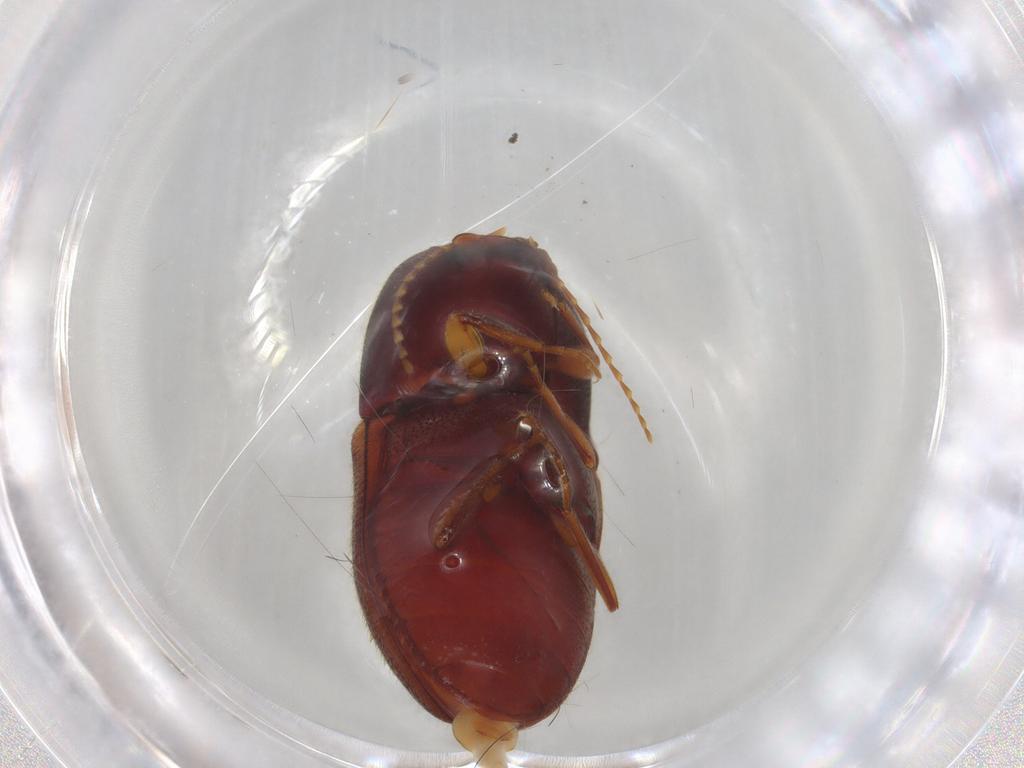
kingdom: Animalia
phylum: Arthropoda
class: Insecta
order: Coleoptera
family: Elateridae
